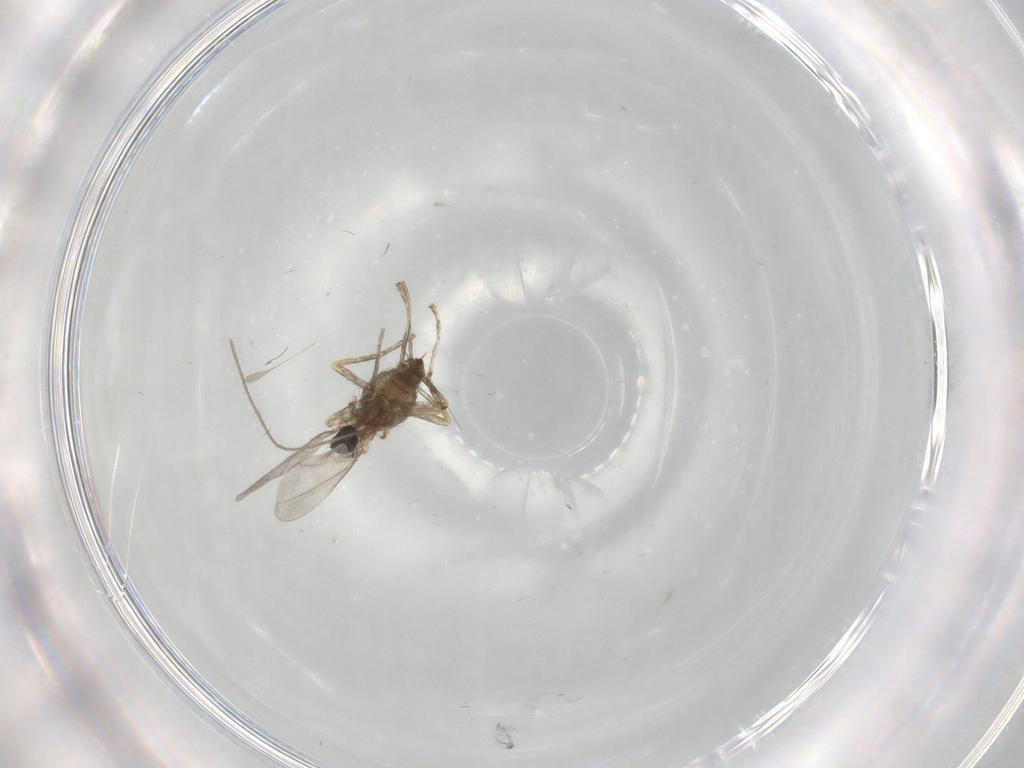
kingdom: Animalia
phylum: Arthropoda
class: Insecta
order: Diptera
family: Cecidomyiidae
